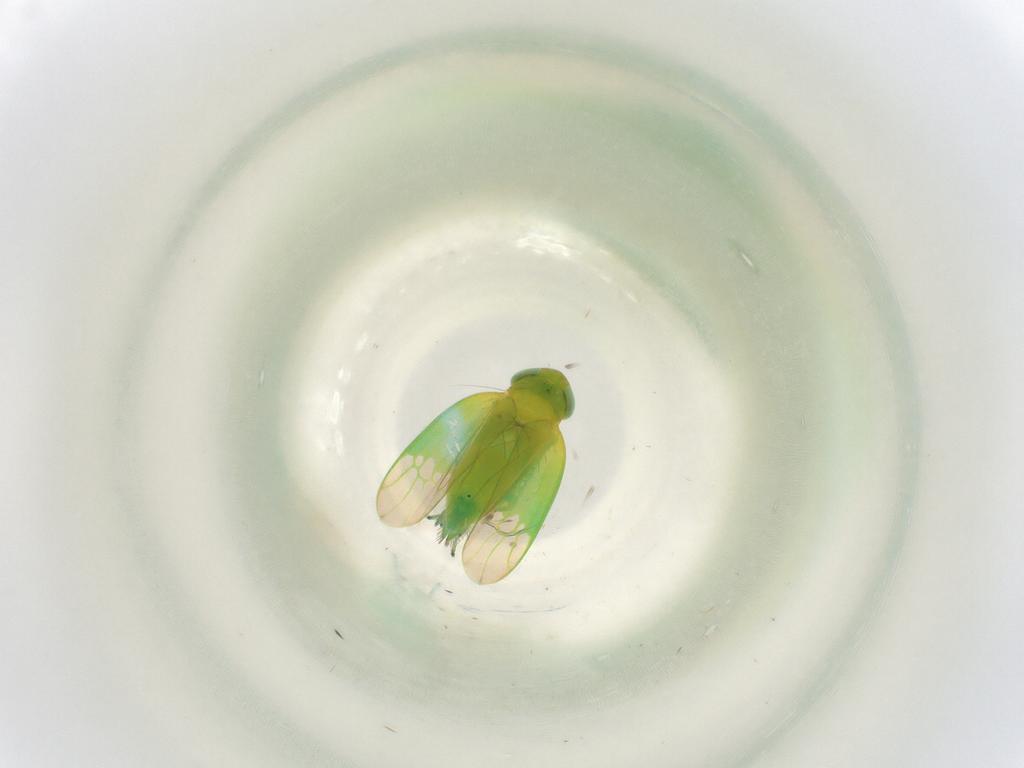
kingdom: Animalia
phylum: Arthropoda
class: Insecta
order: Hemiptera
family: Cicadellidae
